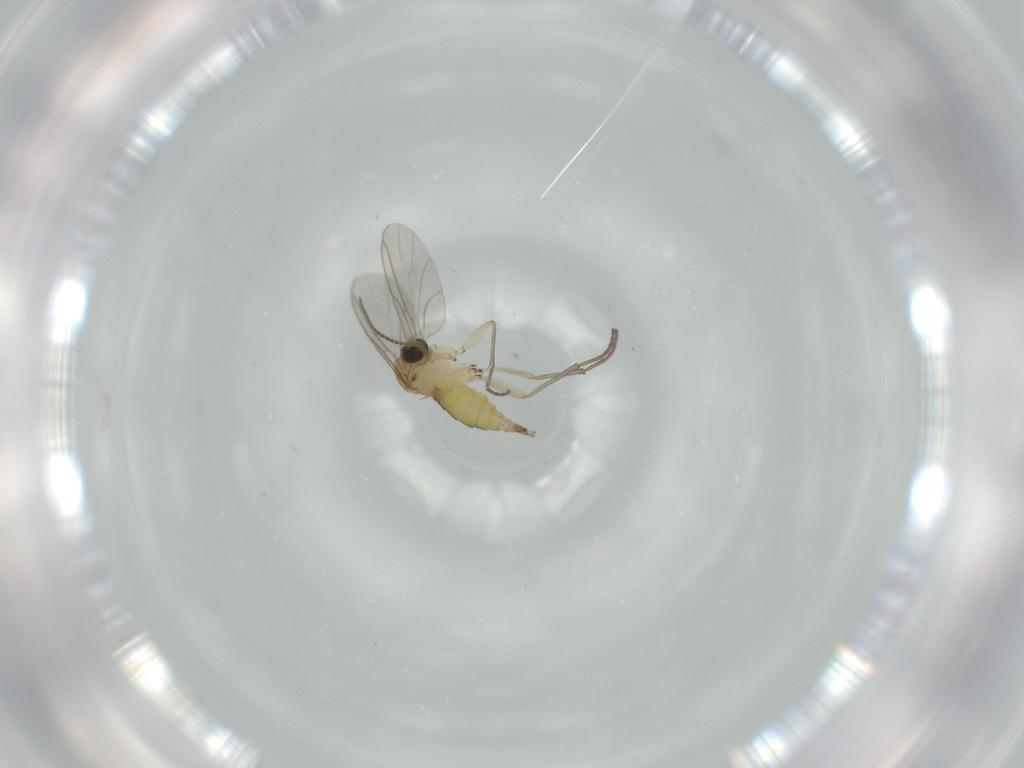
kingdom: Animalia
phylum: Arthropoda
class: Insecta
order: Diptera
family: Sciaridae
